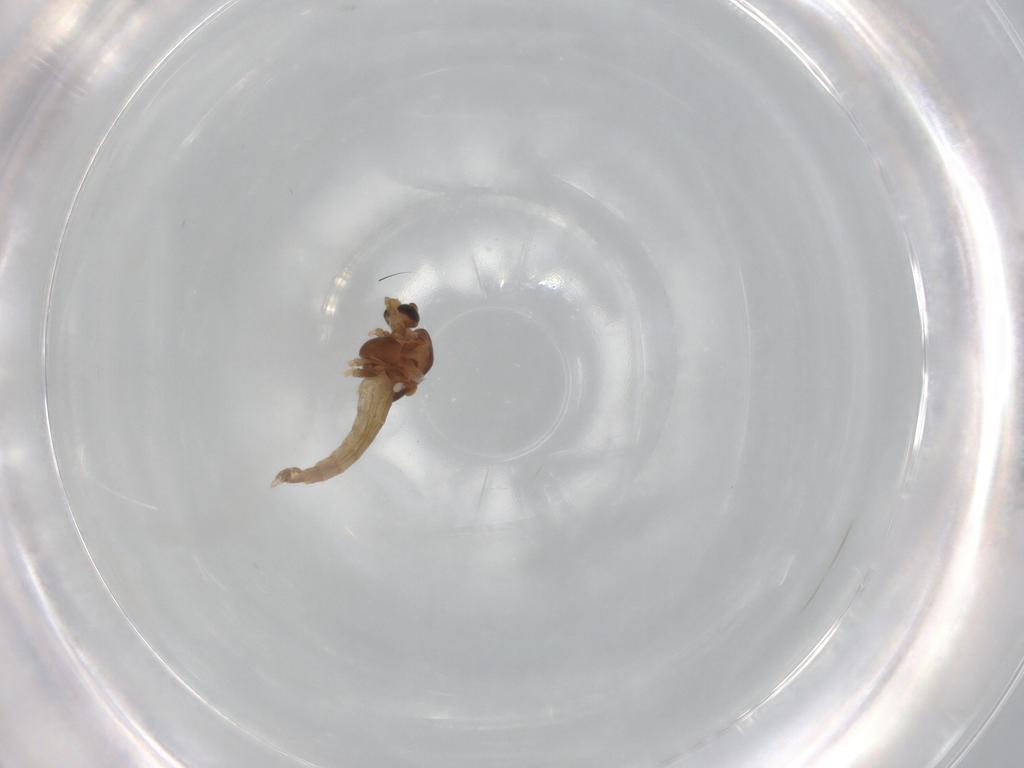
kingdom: Animalia
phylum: Arthropoda
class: Insecta
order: Diptera
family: Chironomidae
